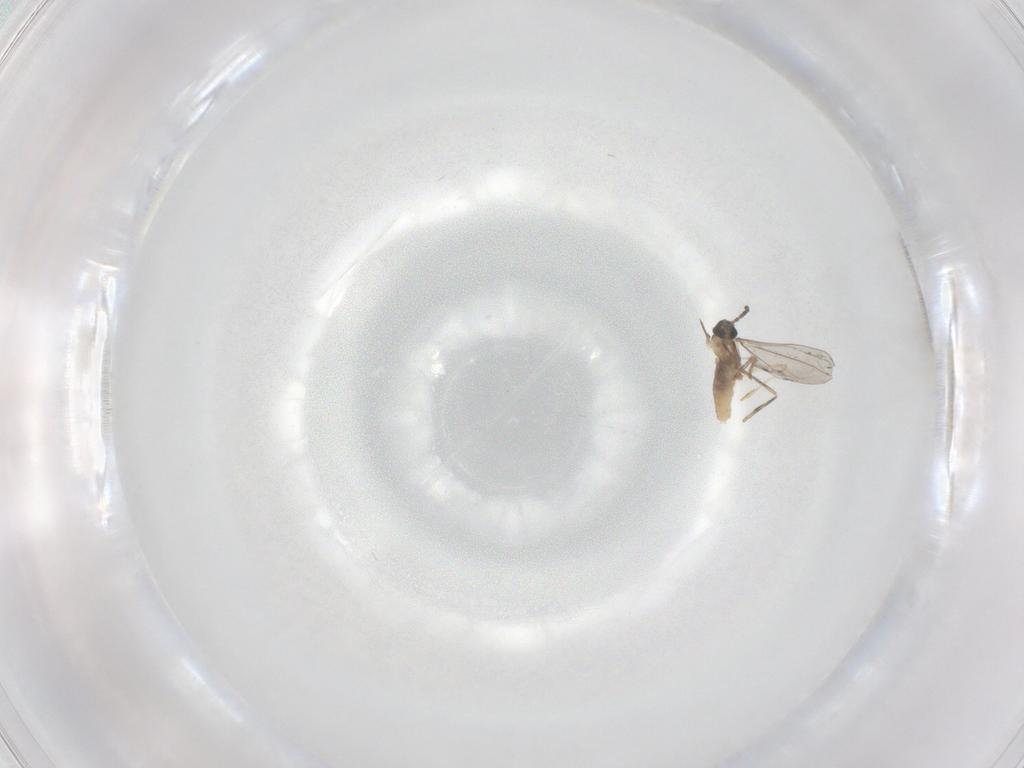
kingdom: Animalia
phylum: Arthropoda
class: Insecta
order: Diptera
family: Cecidomyiidae
